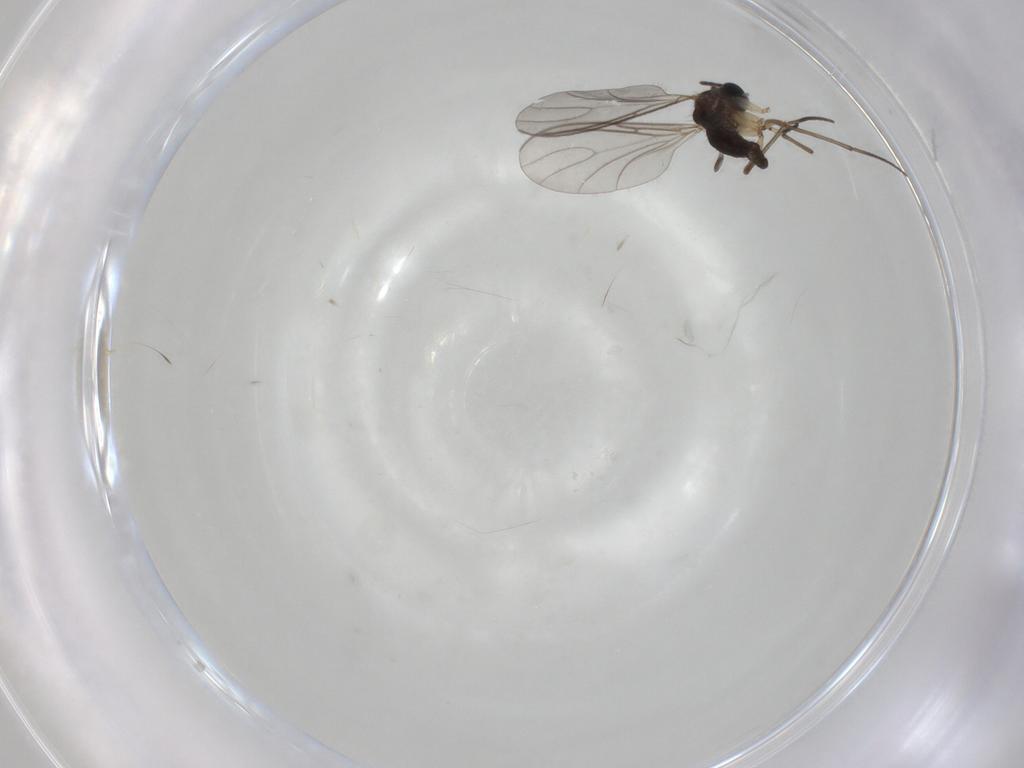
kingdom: Animalia
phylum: Arthropoda
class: Insecta
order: Diptera
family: Sciaridae
